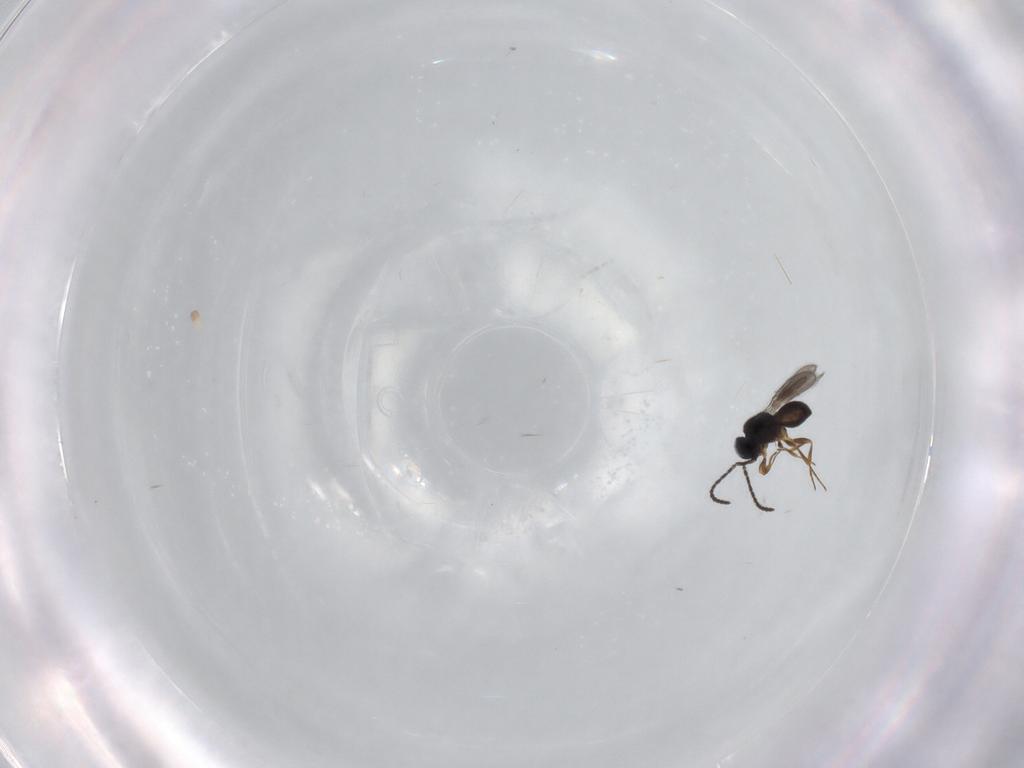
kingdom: Animalia
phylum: Arthropoda
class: Insecta
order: Hymenoptera
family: Scelionidae
